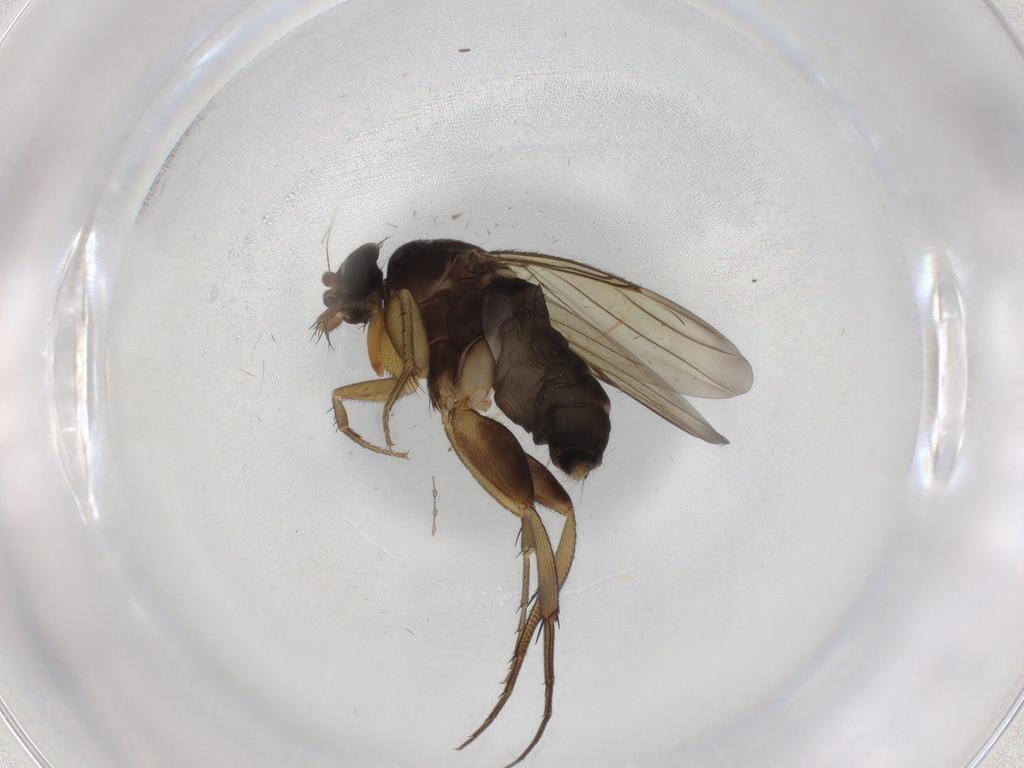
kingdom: Animalia
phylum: Arthropoda
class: Insecta
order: Diptera
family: Chironomidae
